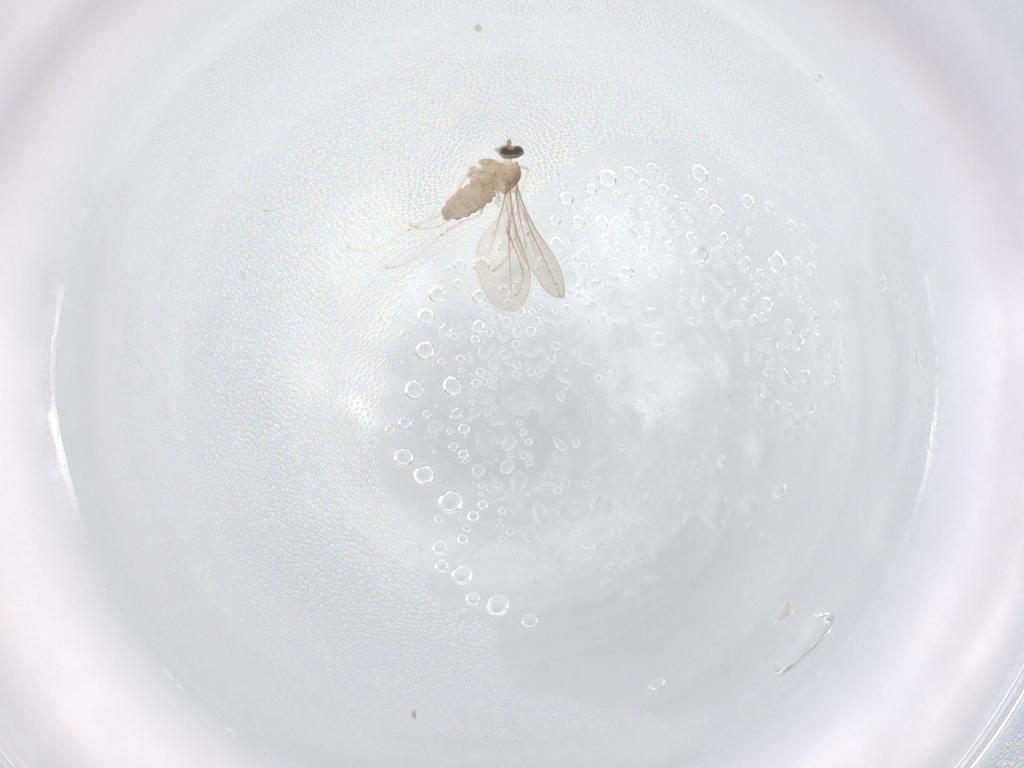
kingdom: Animalia
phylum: Arthropoda
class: Insecta
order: Diptera
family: Cecidomyiidae
